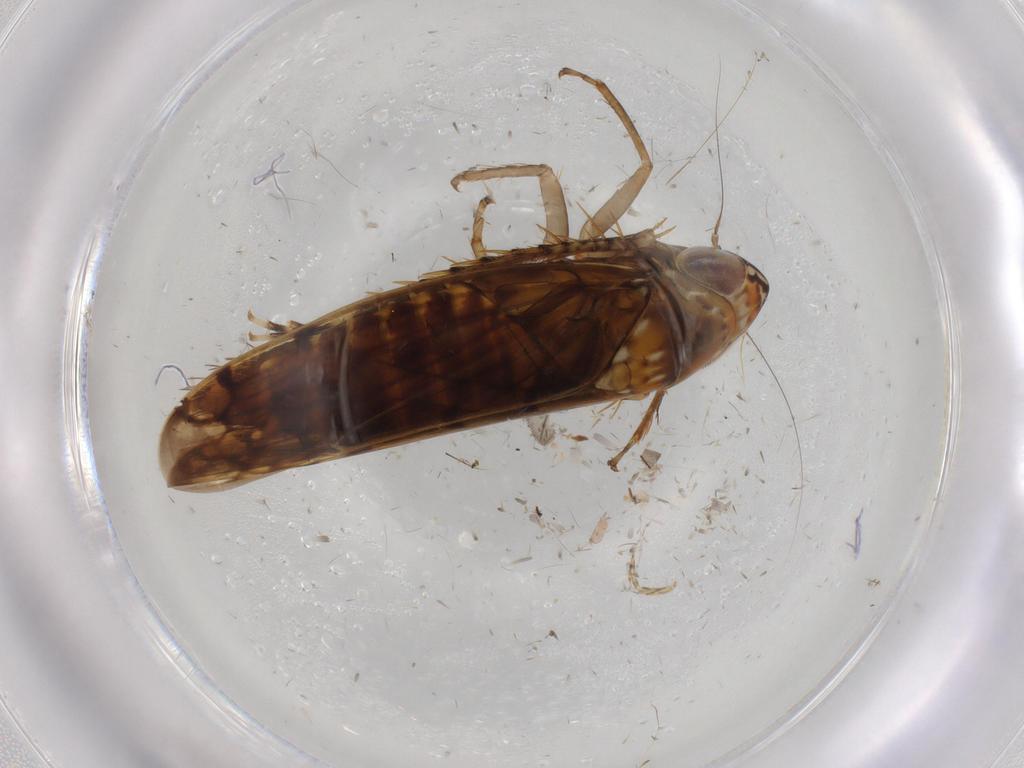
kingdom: Animalia
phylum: Arthropoda
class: Insecta
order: Hemiptera
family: Cicadellidae
